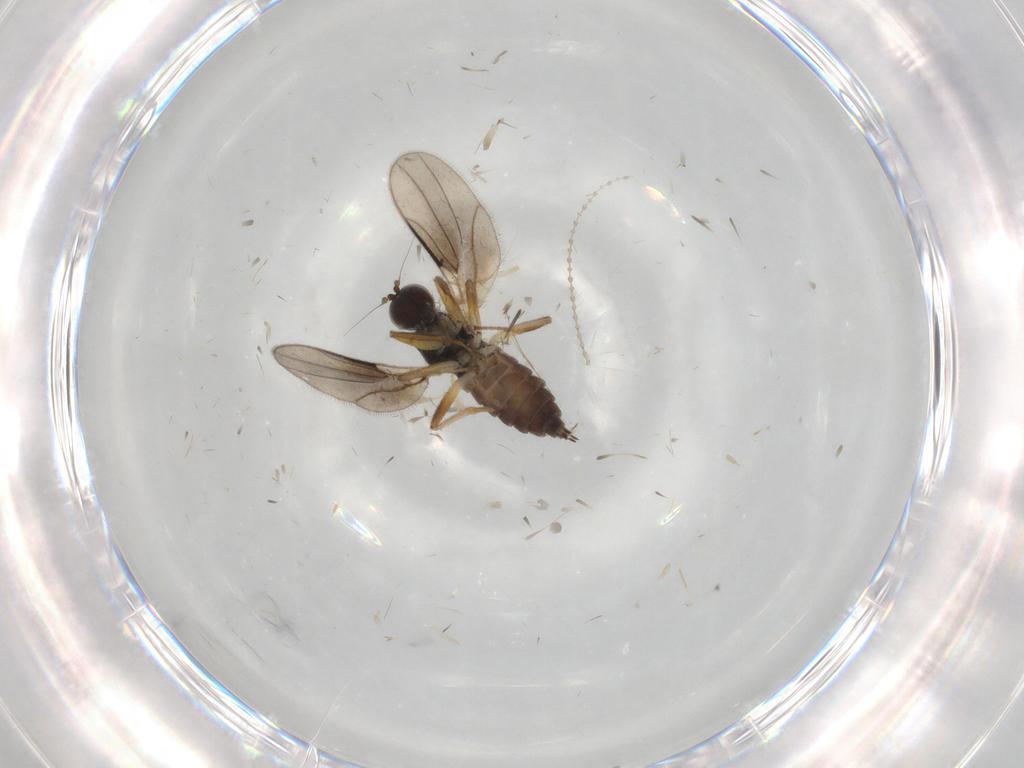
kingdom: Animalia
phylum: Arthropoda
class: Insecta
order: Diptera
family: Hybotidae
